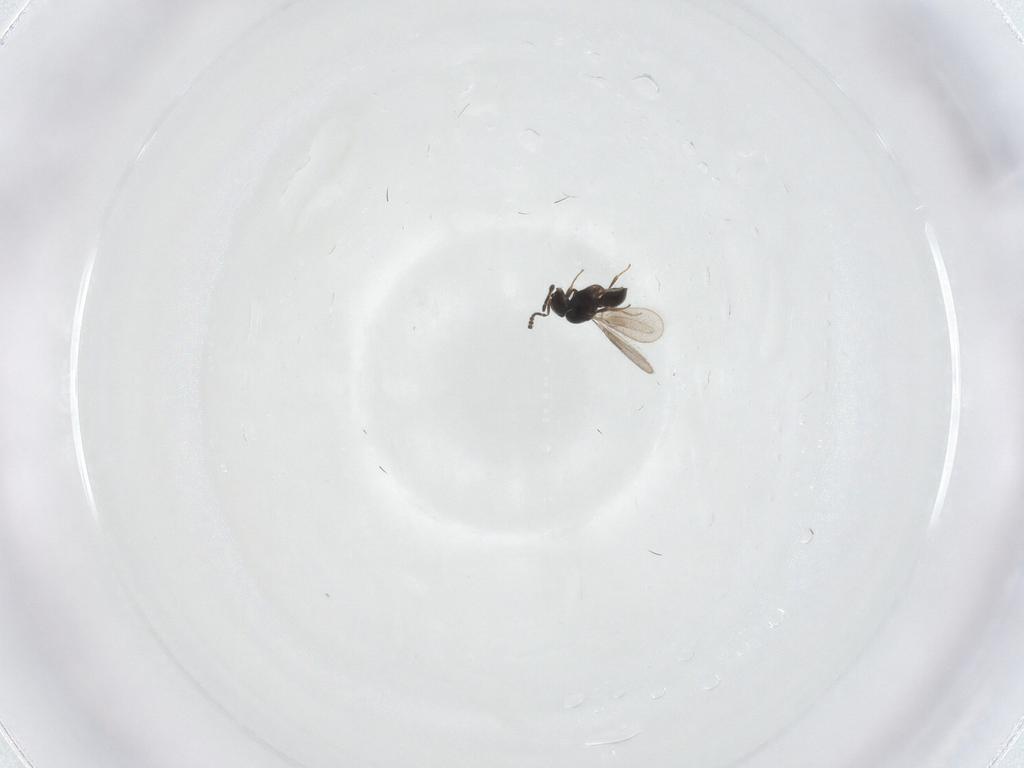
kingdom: Animalia
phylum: Arthropoda
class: Insecta
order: Hymenoptera
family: Scelionidae
